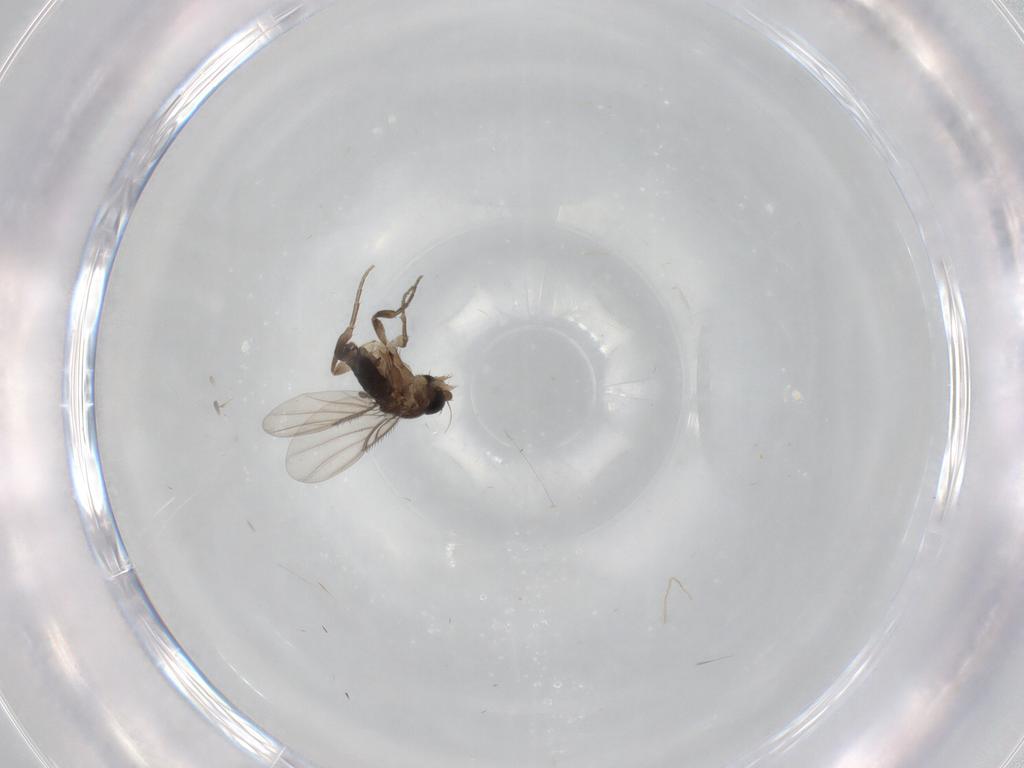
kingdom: Animalia
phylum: Arthropoda
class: Insecta
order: Diptera
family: Phoridae
